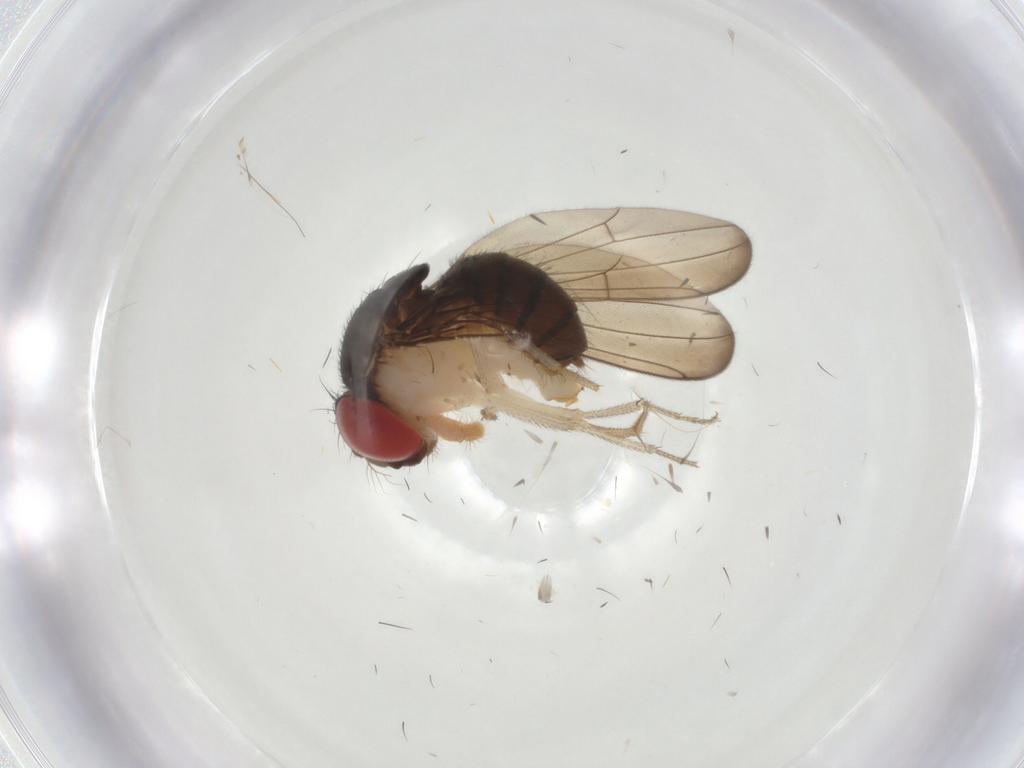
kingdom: Animalia
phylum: Arthropoda
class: Insecta
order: Diptera
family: Drosophilidae
